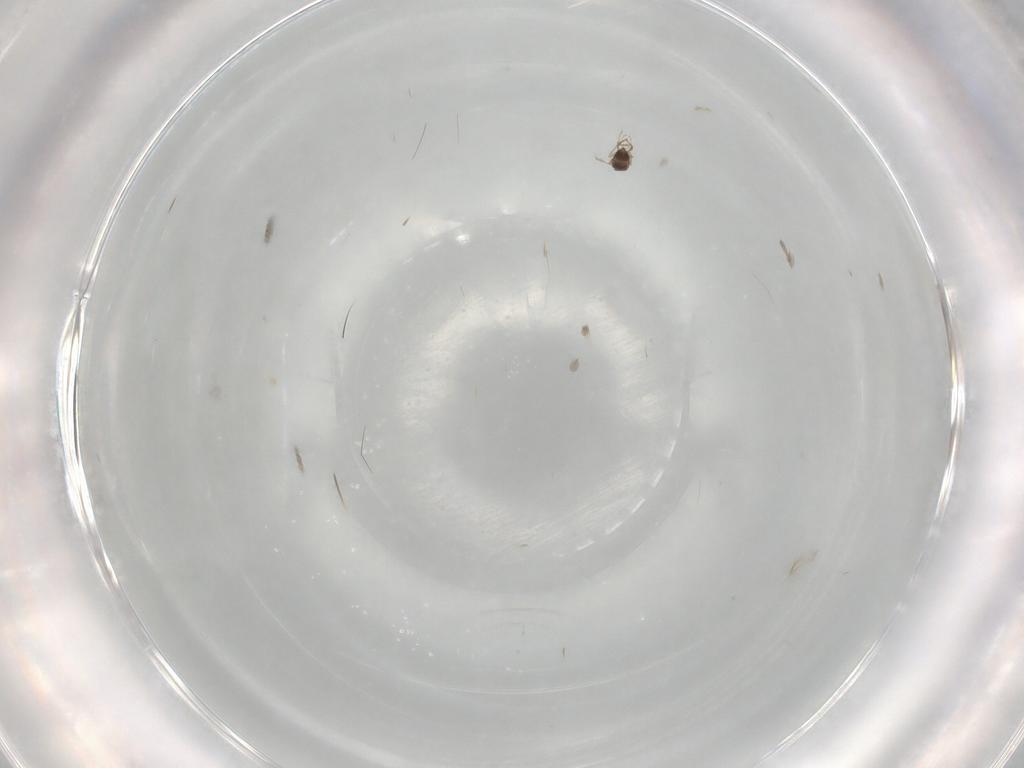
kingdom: Animalia
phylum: Arthropoda
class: Insecta
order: Hymenoptera
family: Mymaridae
